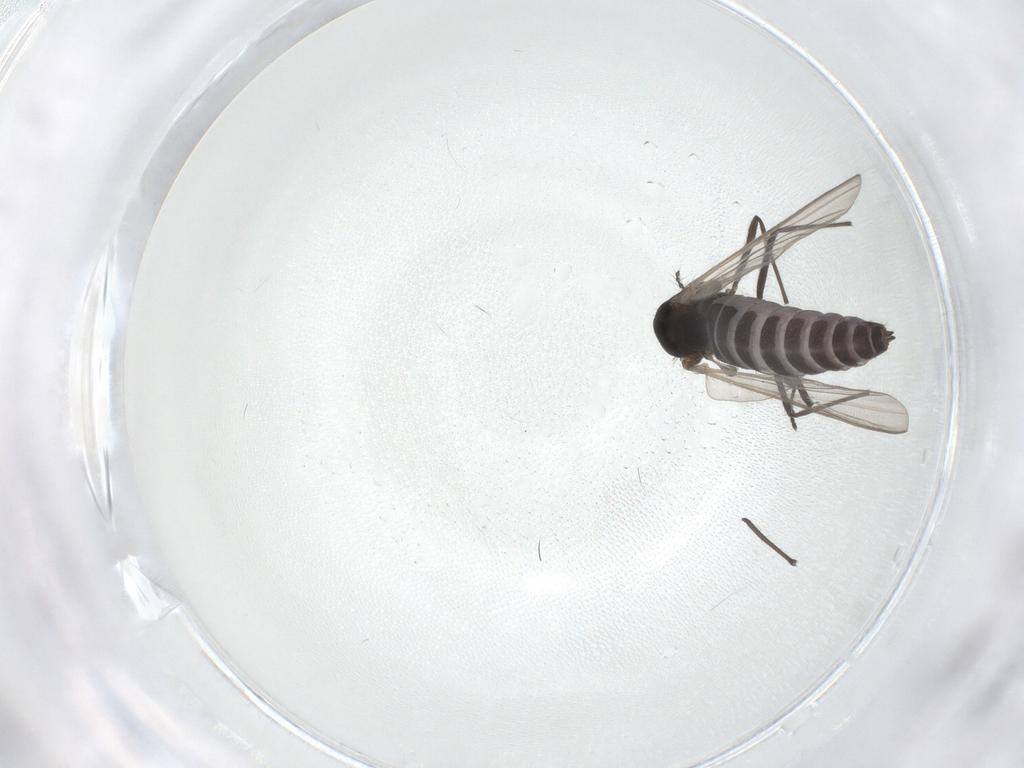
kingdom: Animalia
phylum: Arthropoda
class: Insecta
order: Diptera
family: Chironomidae
